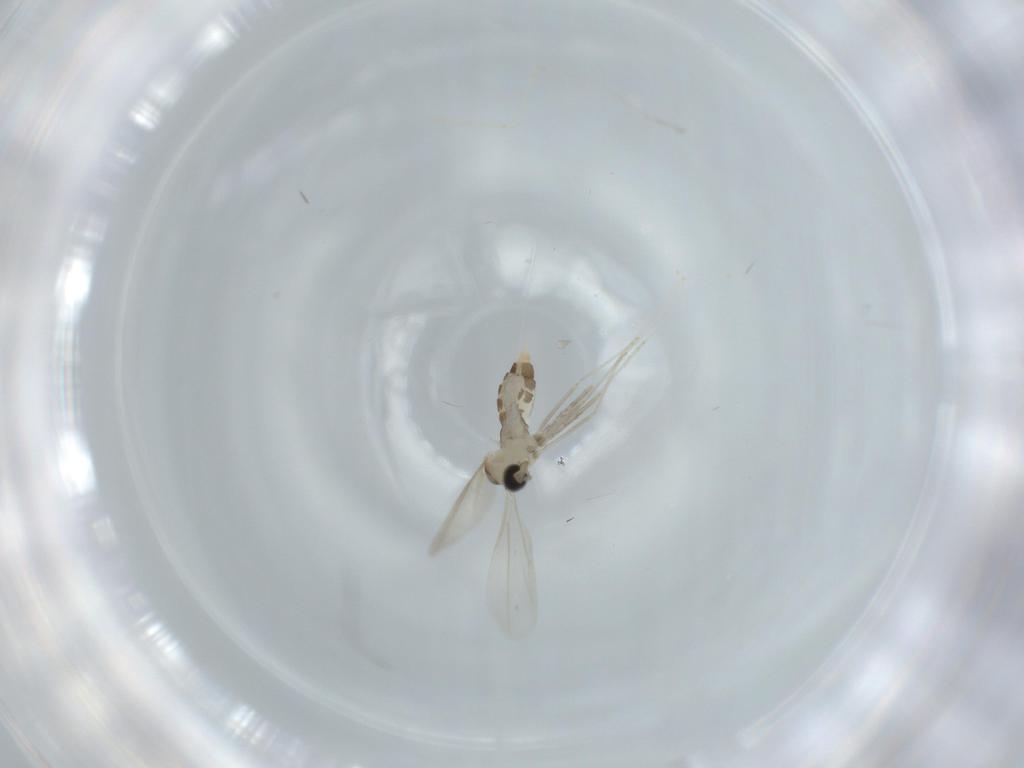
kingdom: Animalia
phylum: Arthropoda
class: Insecta
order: Diptera
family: Cecidomyiidae
